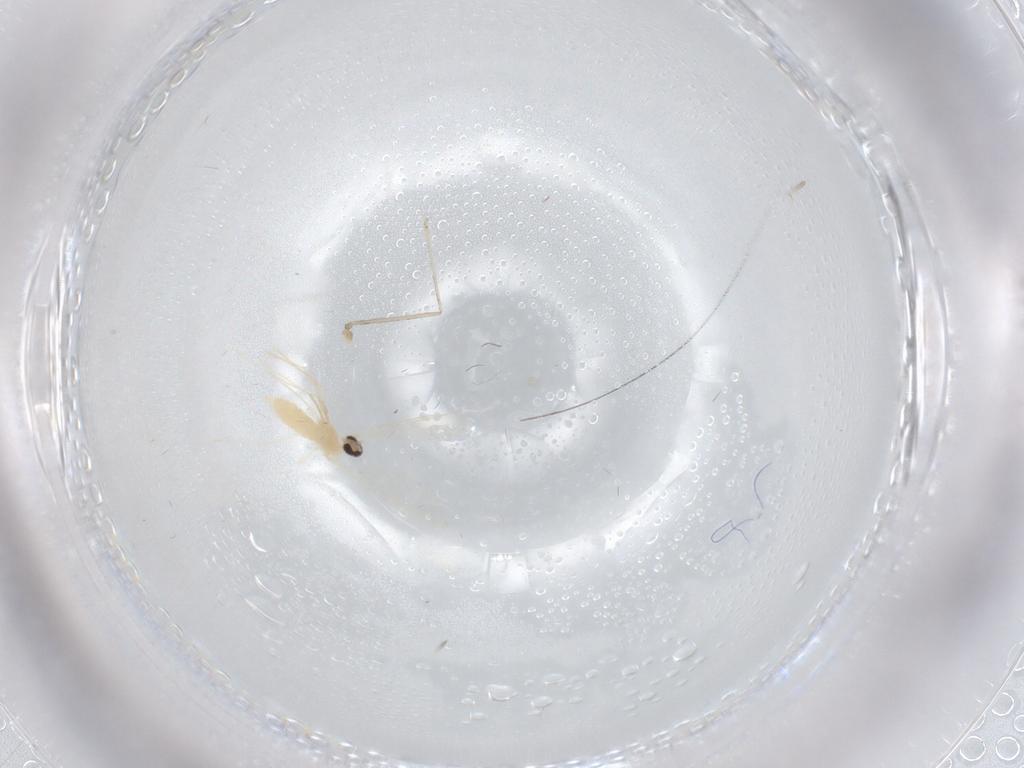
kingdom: Animalia
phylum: Arthropoda
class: Insecta
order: Diptera
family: Cecidomyiidae
